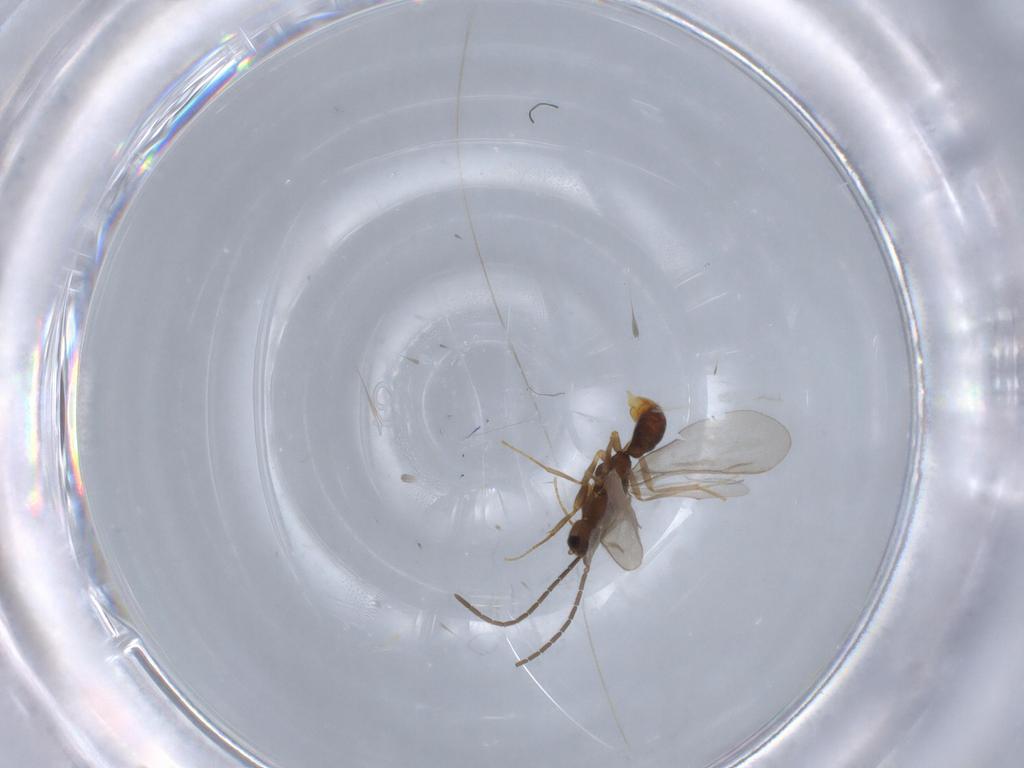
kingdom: Animalia
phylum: Arthropoda
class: Insecta
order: Hymenoptera
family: Formicidae
